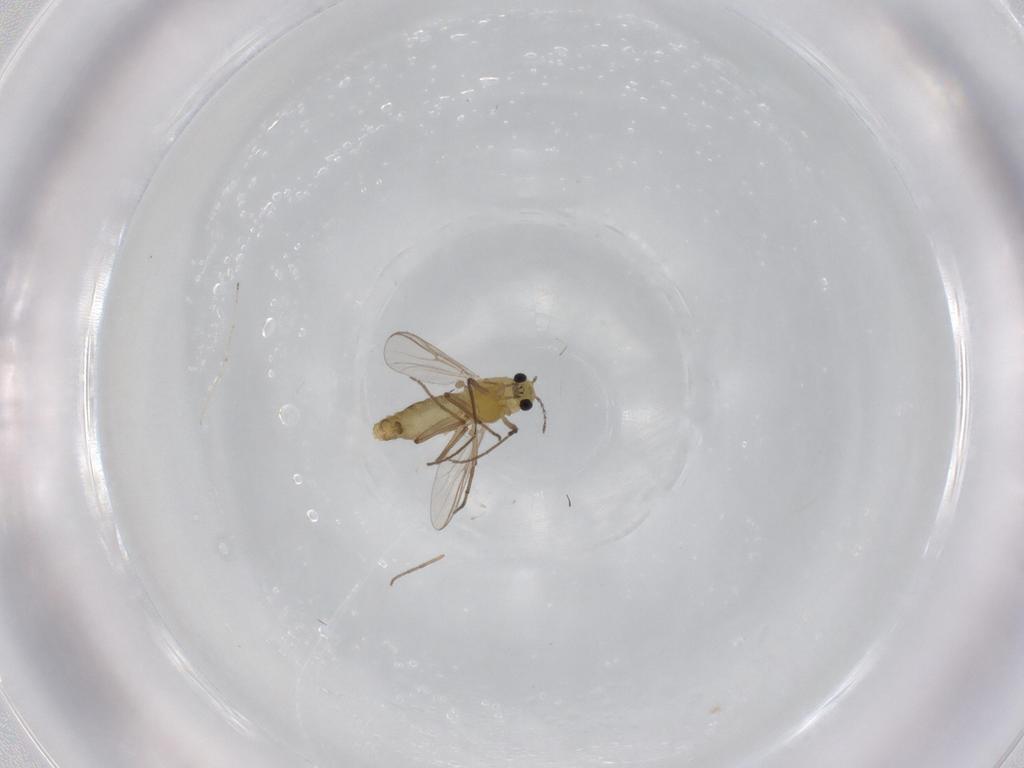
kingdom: Animalia
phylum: Arthropoda
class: Insecta
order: Diptera
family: Chironomidae
